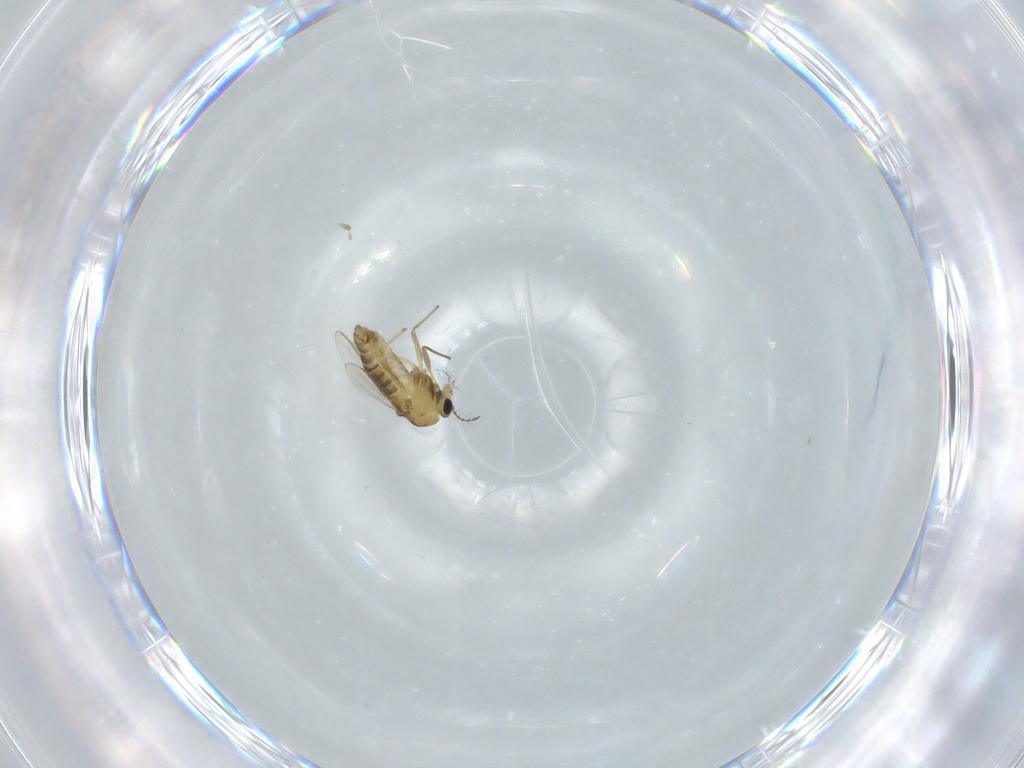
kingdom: Animalia
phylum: Arthropoda
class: Insecta
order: Diptera
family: Chironomidae
